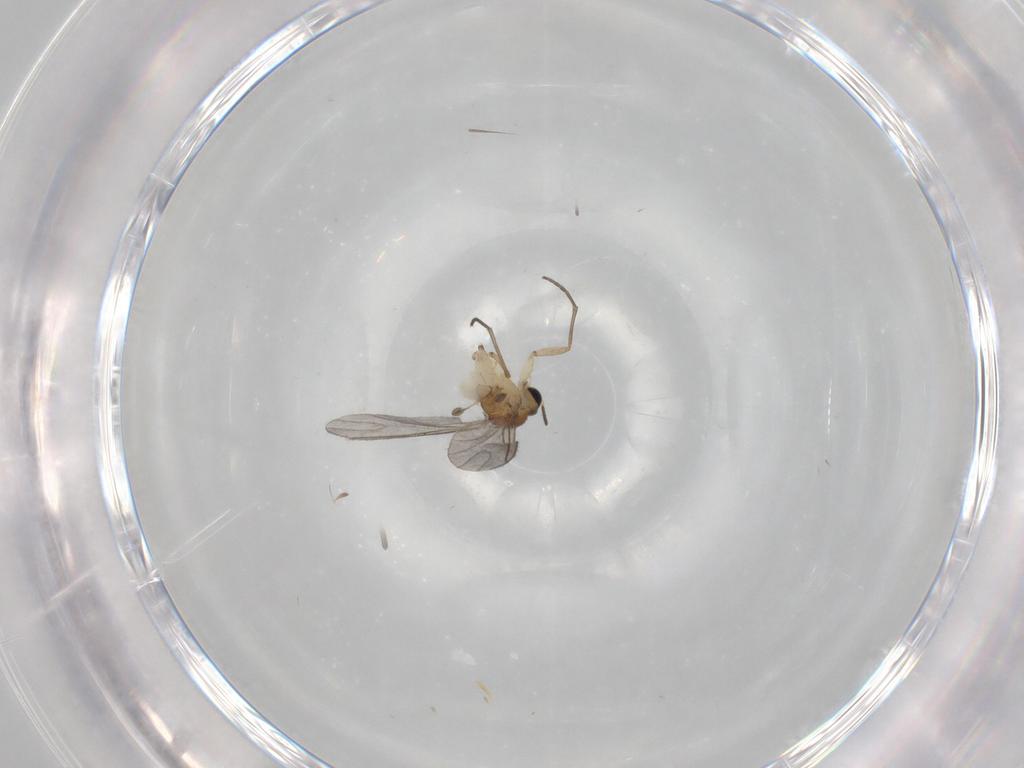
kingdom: Animalia
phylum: Arthropoda
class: Insecta
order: Diptera
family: Sciaridae
